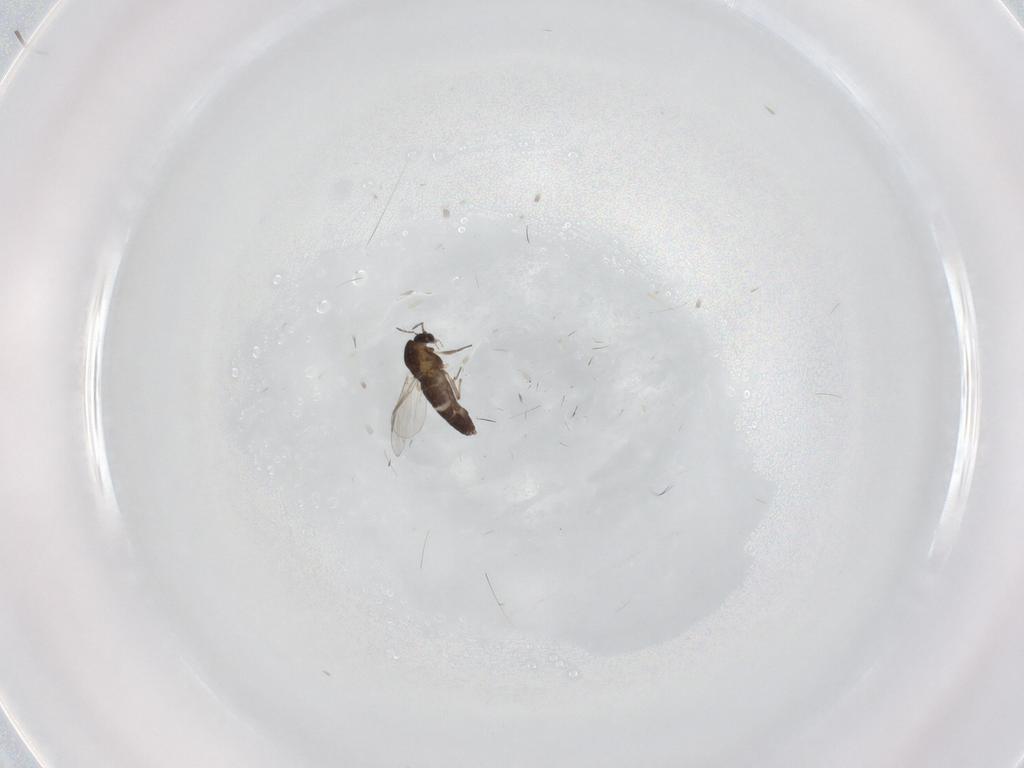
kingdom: Animalia
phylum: Arthropoda
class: Insecta
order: Diptera
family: Chironomidae
